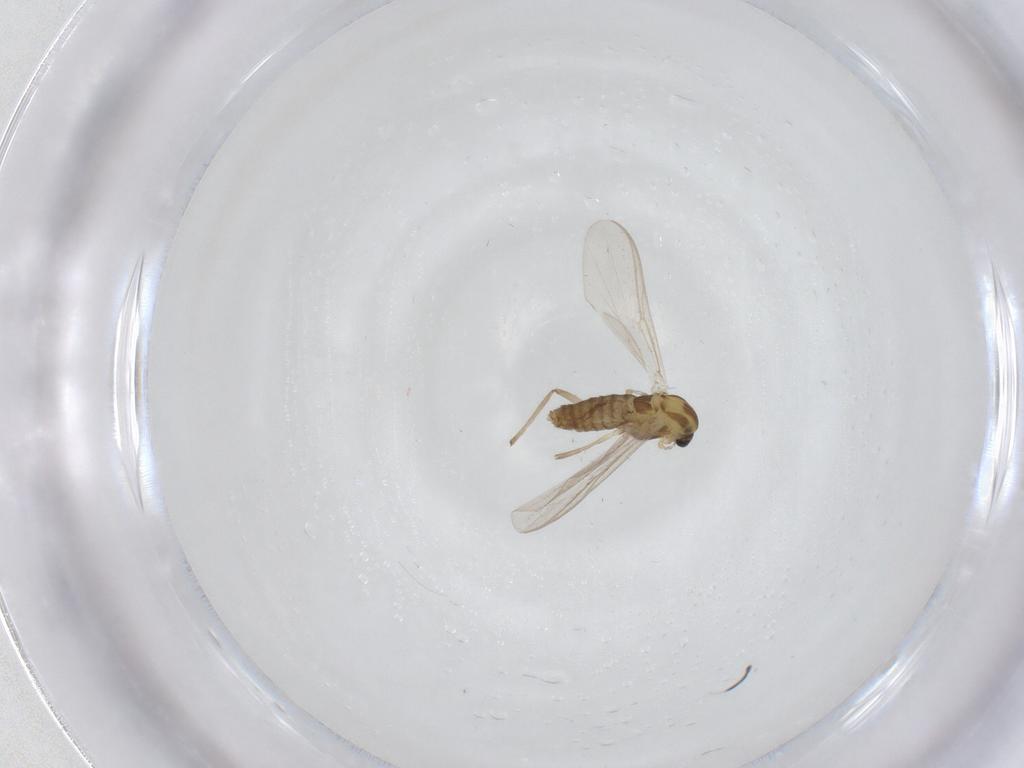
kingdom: Animalia
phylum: Arthropoda
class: Insecta
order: Diptera
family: Chironomidae
